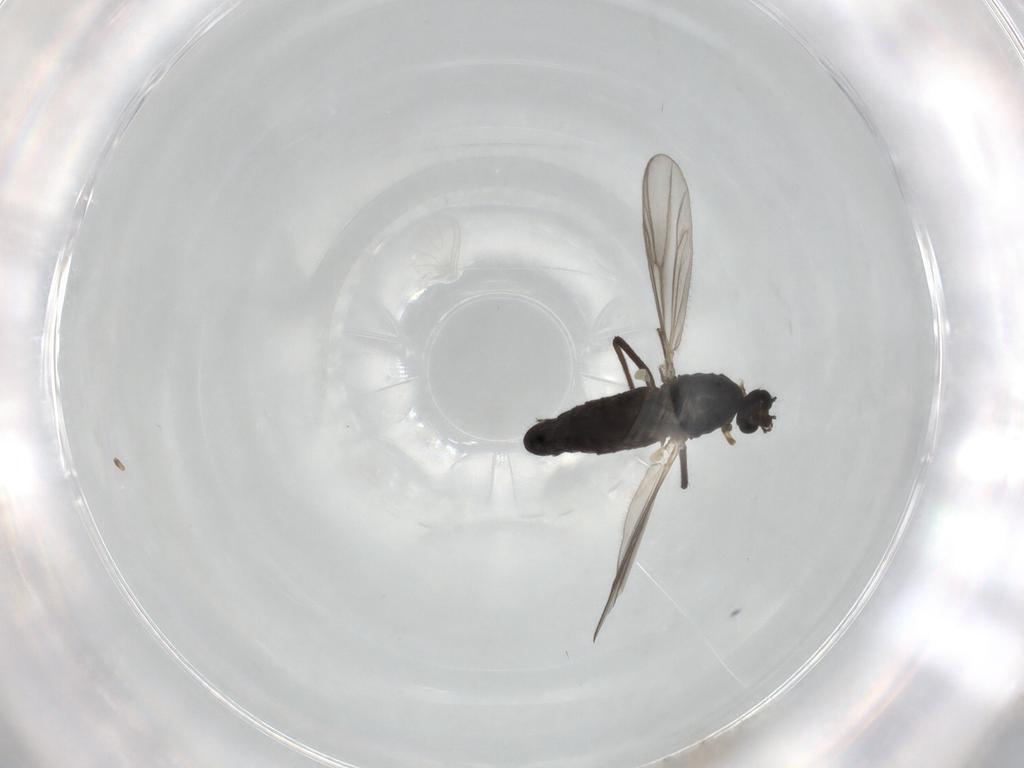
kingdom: Animalia
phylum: Arthropoda
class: Insecta
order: Diptera
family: Chironomidae
